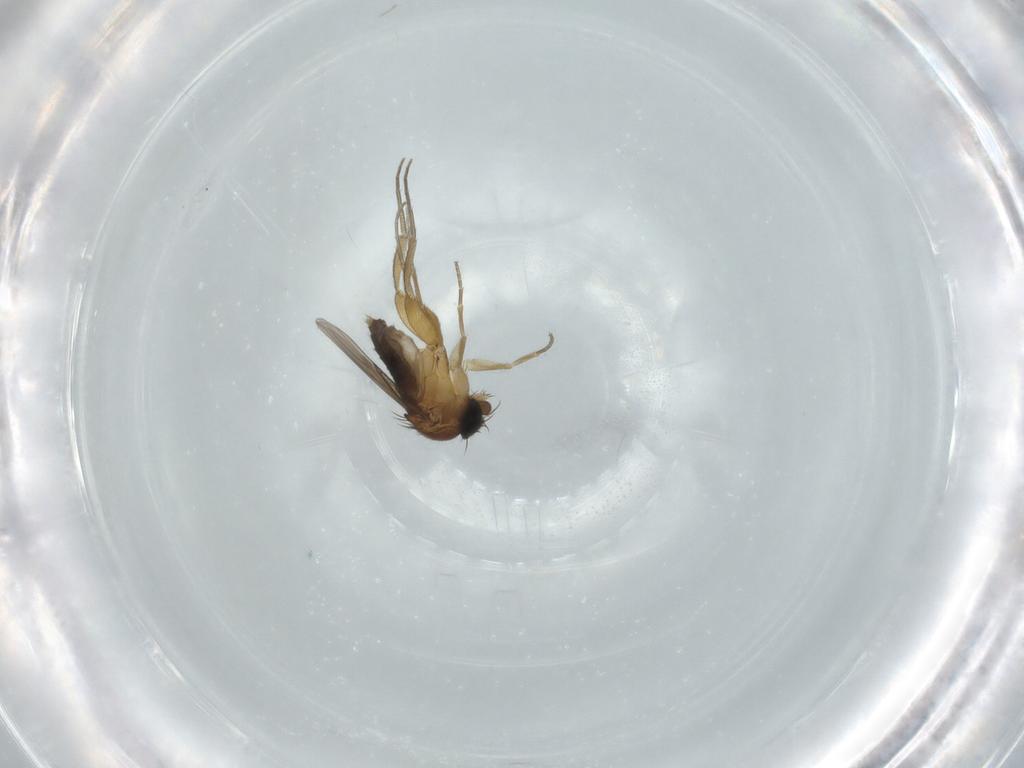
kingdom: Animalia
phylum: Arthropoda
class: Insecta
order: Diptera
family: Phoridae
